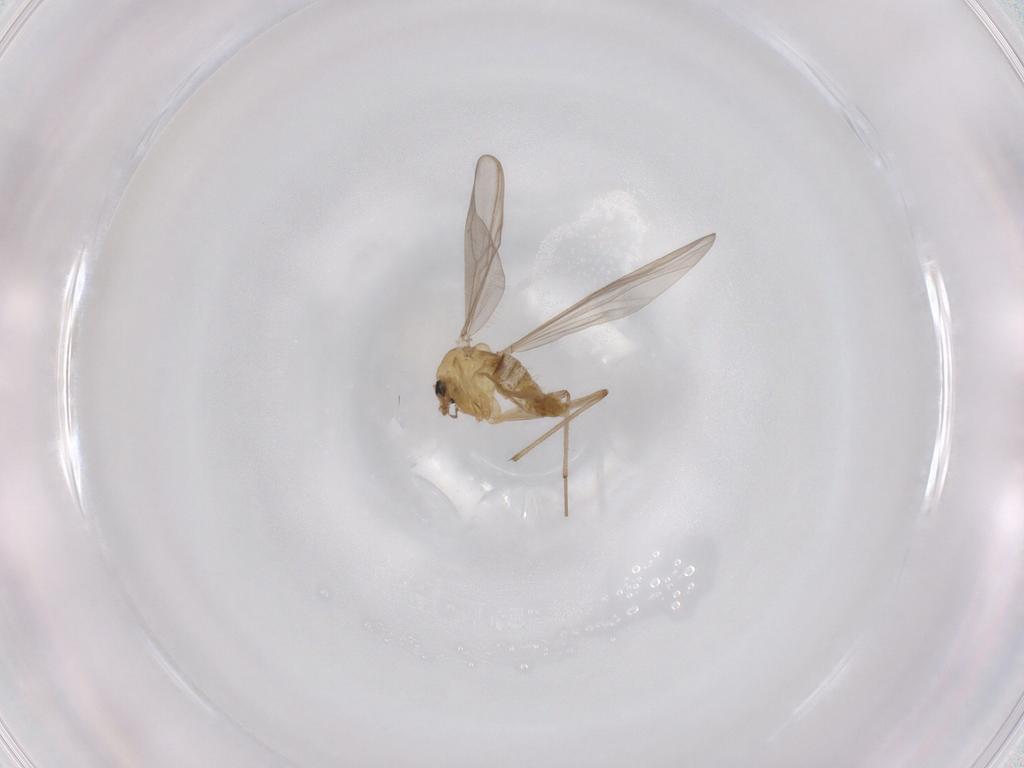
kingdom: Animalia
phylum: Arthropoda
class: Insecta
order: Diptera
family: Chironomidae
